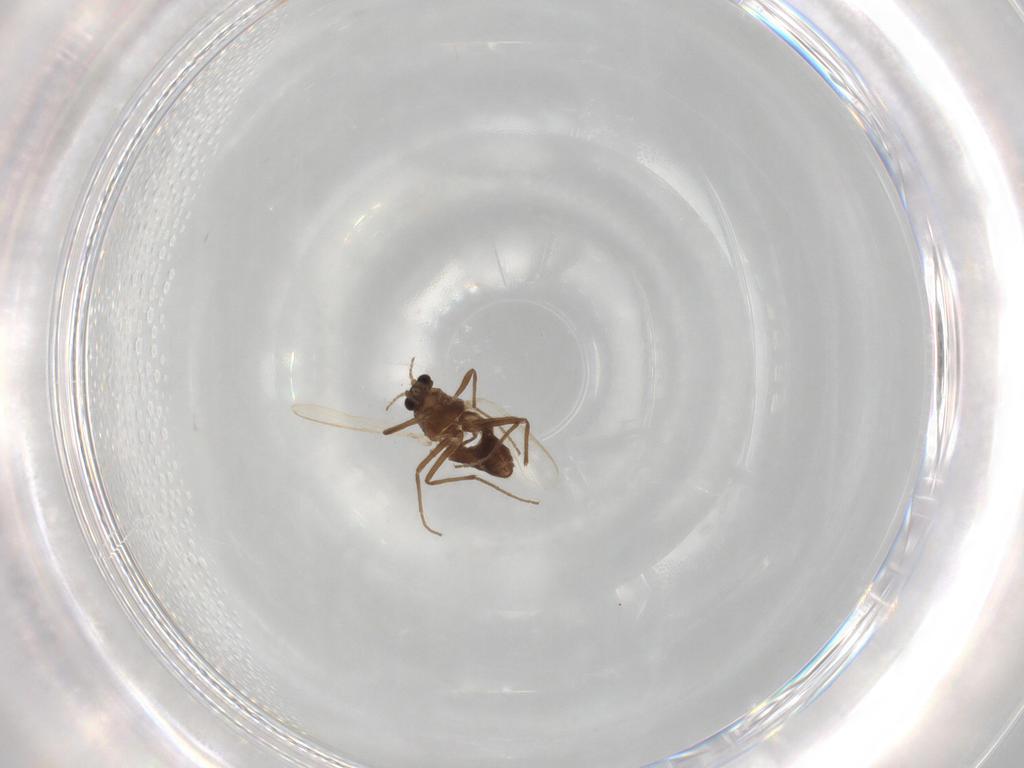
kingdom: Animalia
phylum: Arthropoda
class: Insecta
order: Diptera
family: Chironomidae
